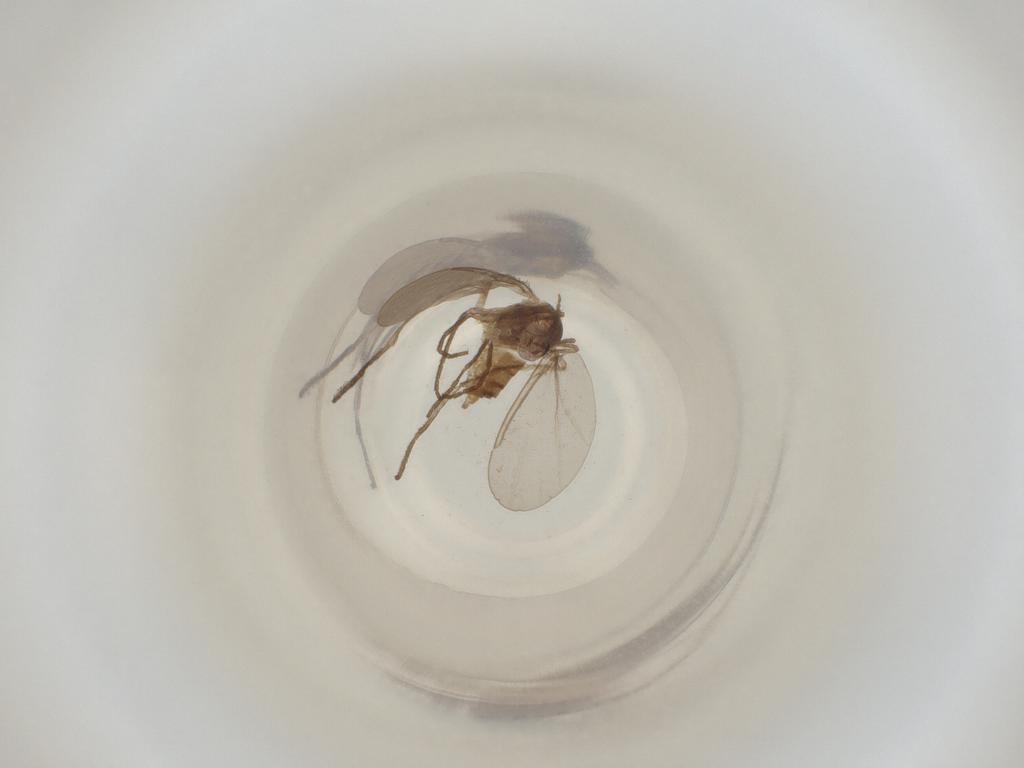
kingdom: Animalia
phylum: Arthropoda
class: Insecta
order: Diptera
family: Cecidomyiidae
